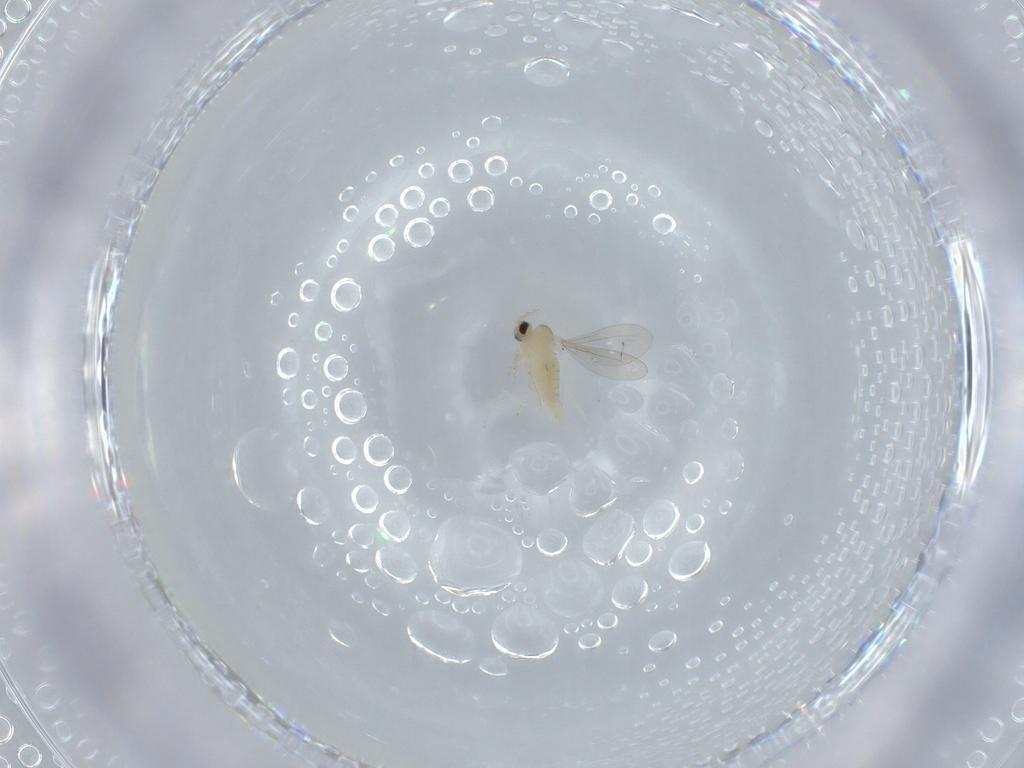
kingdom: Animalia
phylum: Arthropoda
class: Insecta
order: Diptera
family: Cecidomyiidae
